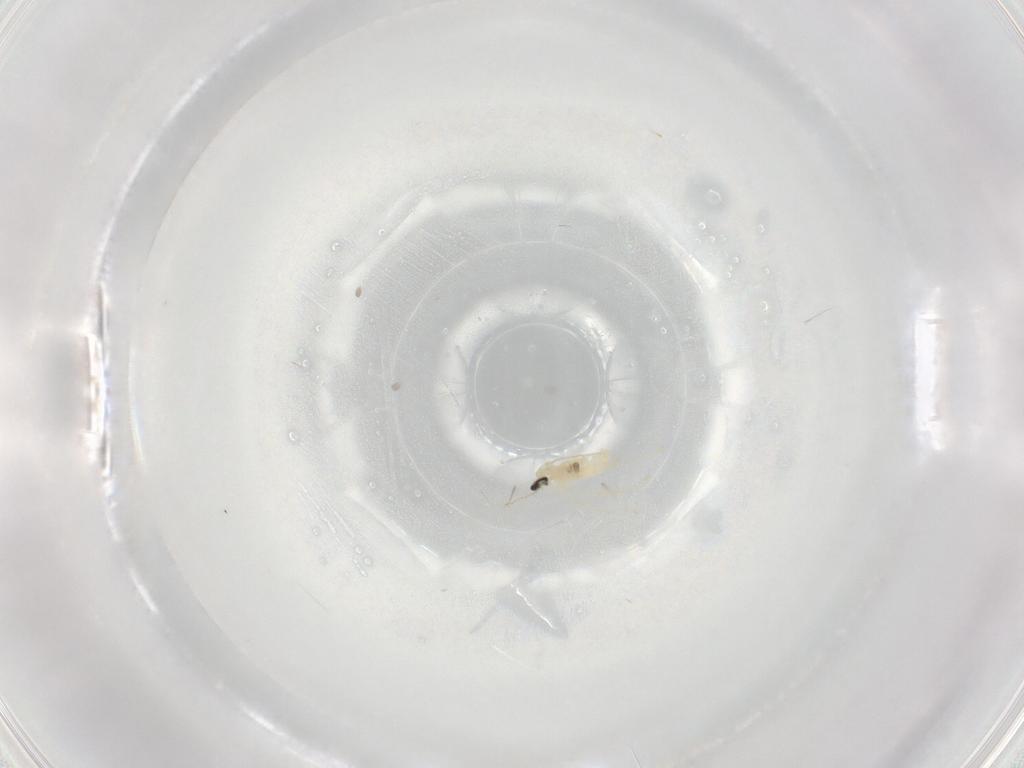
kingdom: Animalia
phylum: Arthropoda
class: Insecta
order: Diptera
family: Cecidomyiidae
